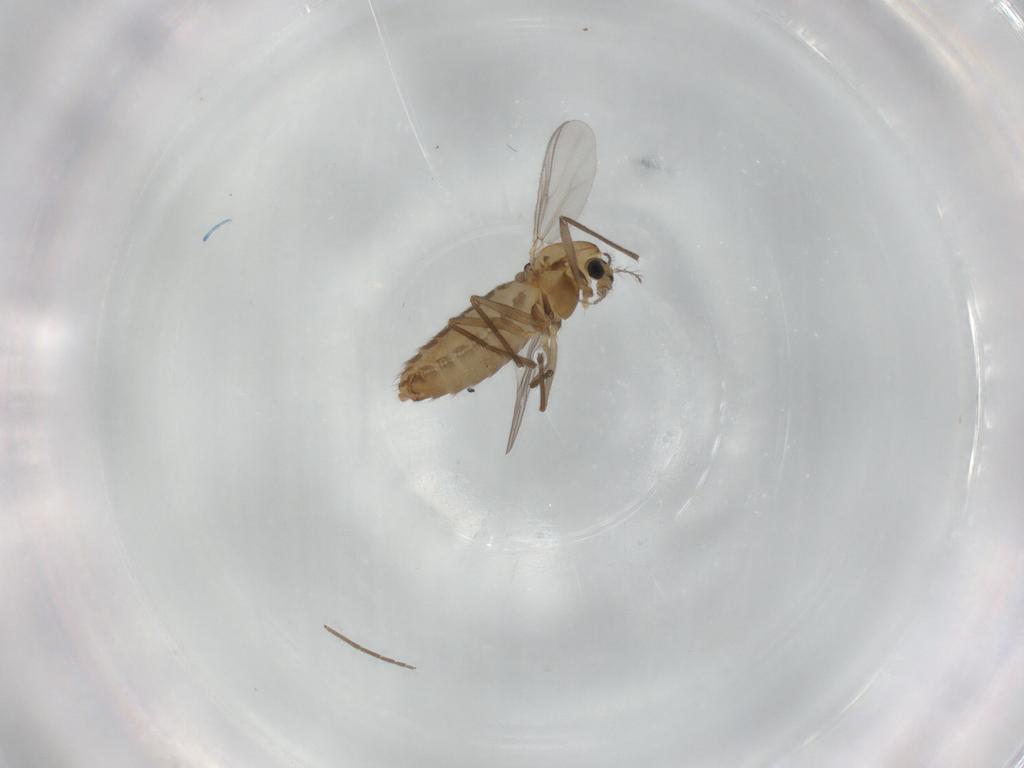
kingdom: Animalia
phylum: Arthropoda
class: Insecta
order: Diptera
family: Chironomidae
